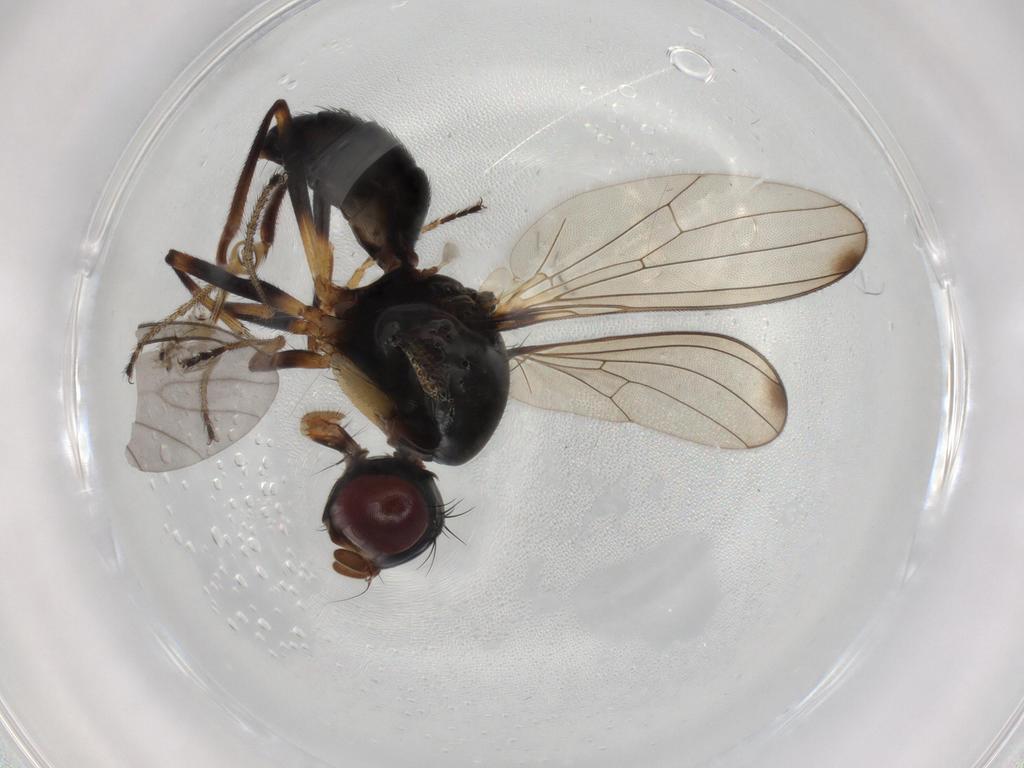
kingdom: Animalia
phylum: Arthropoda
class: Insecta
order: Diptera
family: Sepsidae
